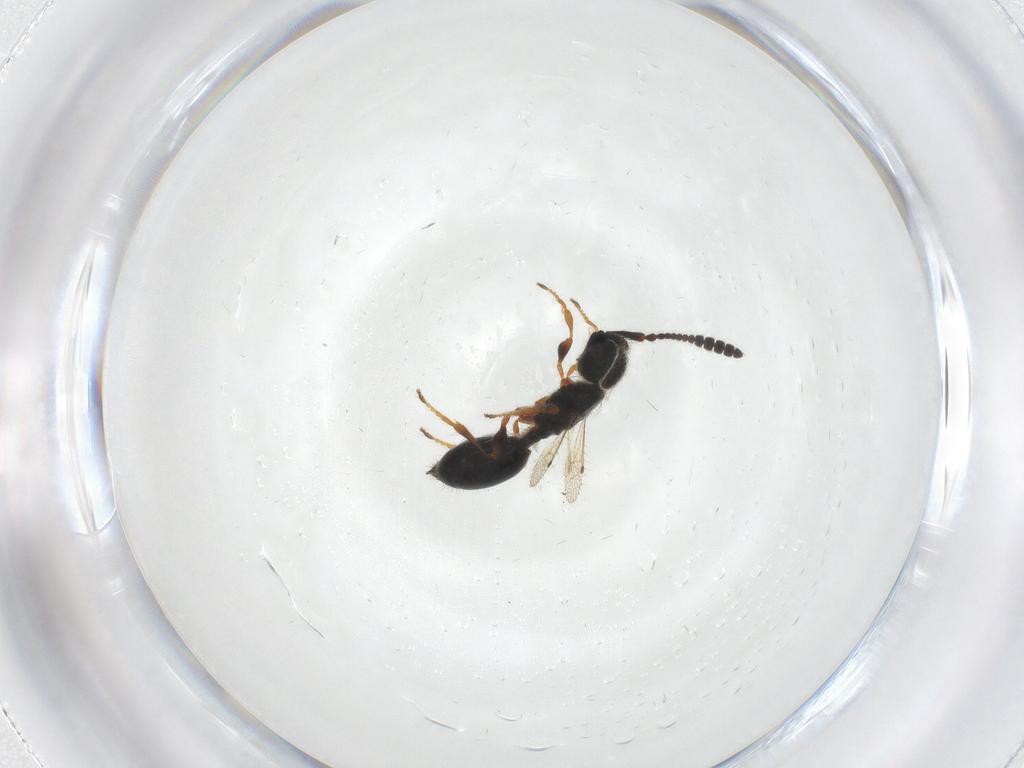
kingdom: Animalia
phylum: Arthropoda
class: Insecta
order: Hymenoptera
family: Diapriidae
